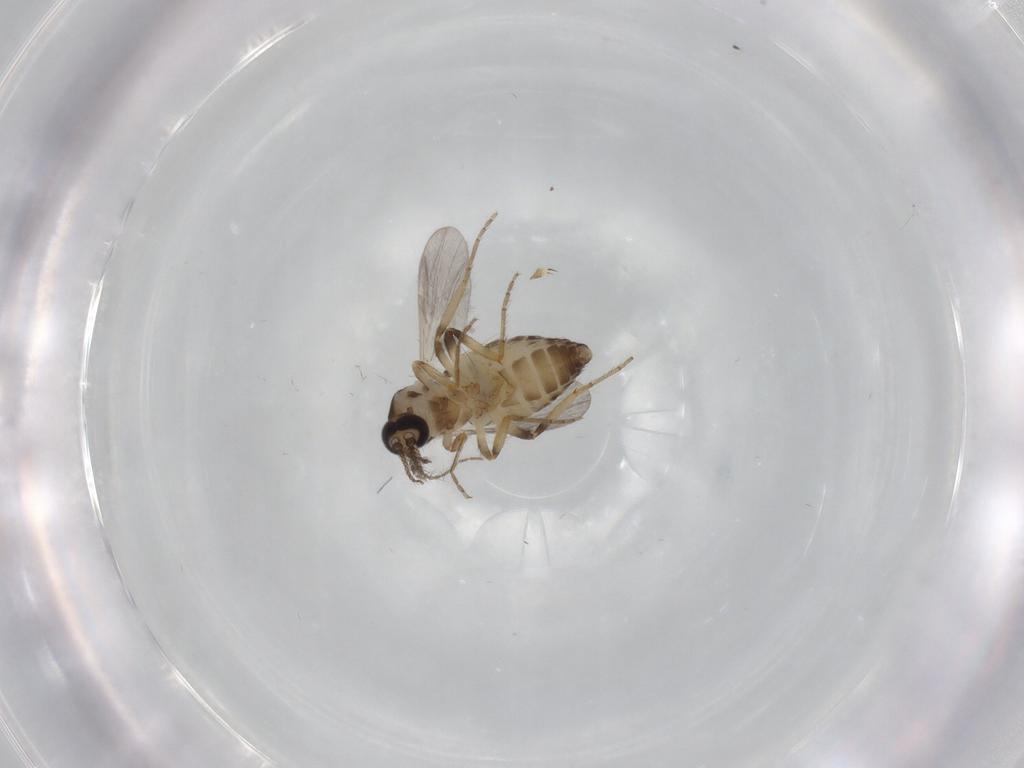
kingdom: Animalia
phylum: Arthropoda
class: Insecta
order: Diptera
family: Ceratopogonidae
